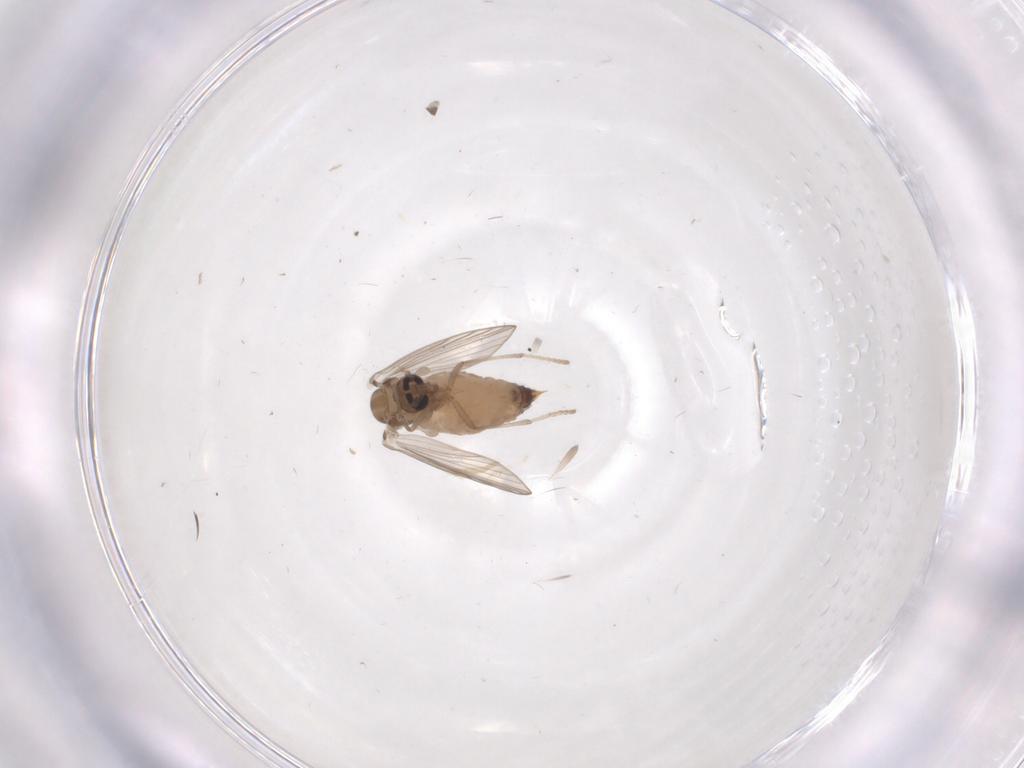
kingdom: Animalia
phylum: Arthropoda
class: Insecta
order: Diptera
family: Psychodidae
